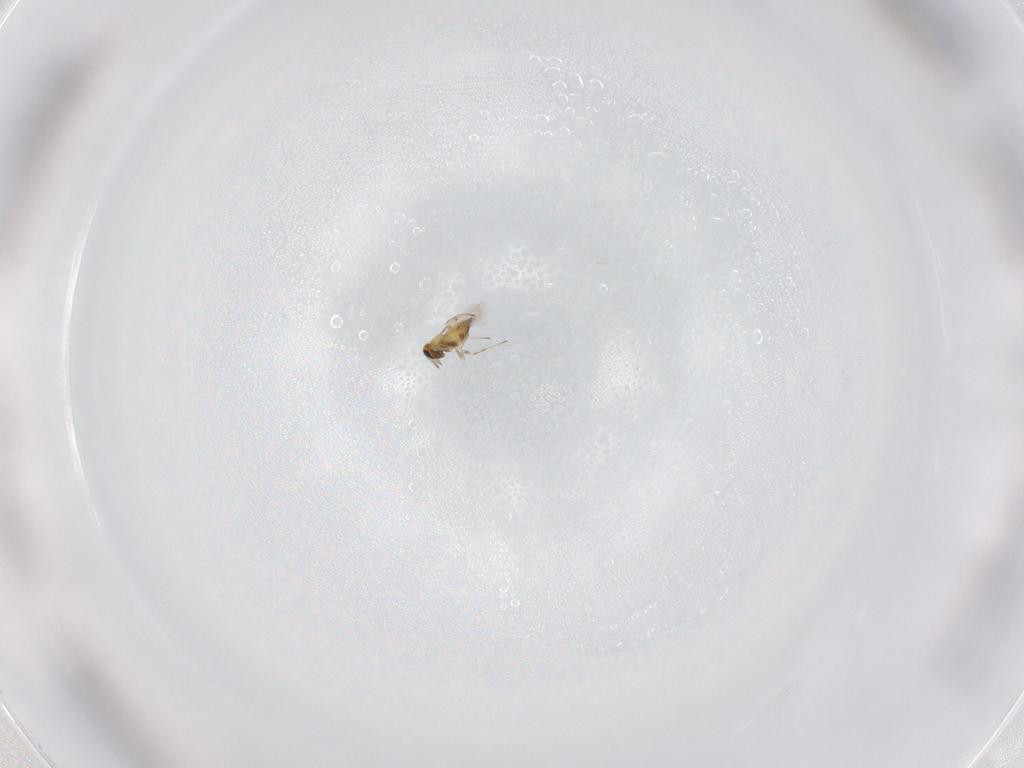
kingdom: Animalia
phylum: Arthropoda
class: Insecta
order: Hymenoptera
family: Trichogrammatidae
